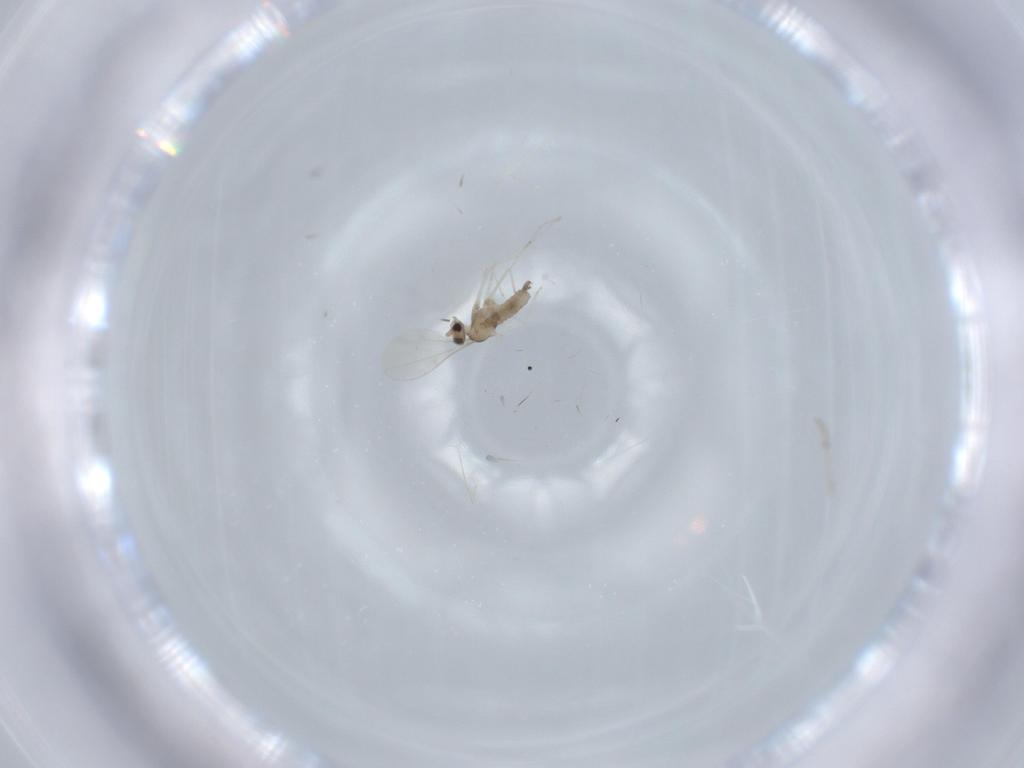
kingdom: Animalia
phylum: Arthropoda
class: Insecta
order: Diptera
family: Cecidomyiidae
